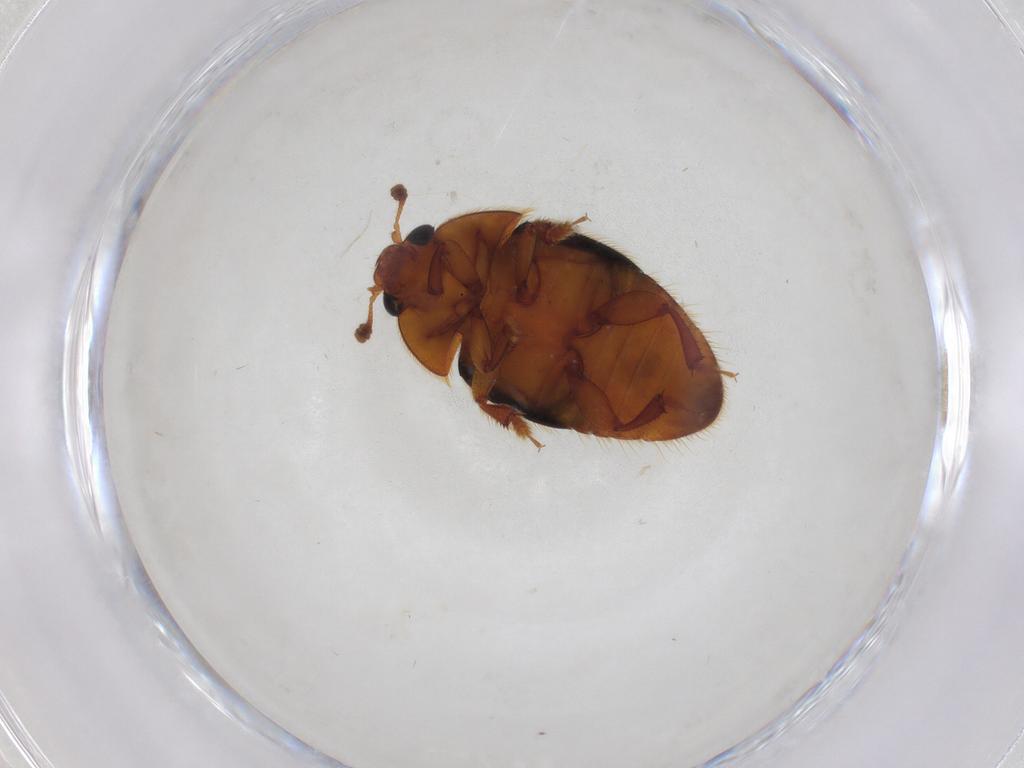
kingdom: Animalia
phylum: Arthropoda
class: Insecta
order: Coleoptera
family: Nitidulidae
